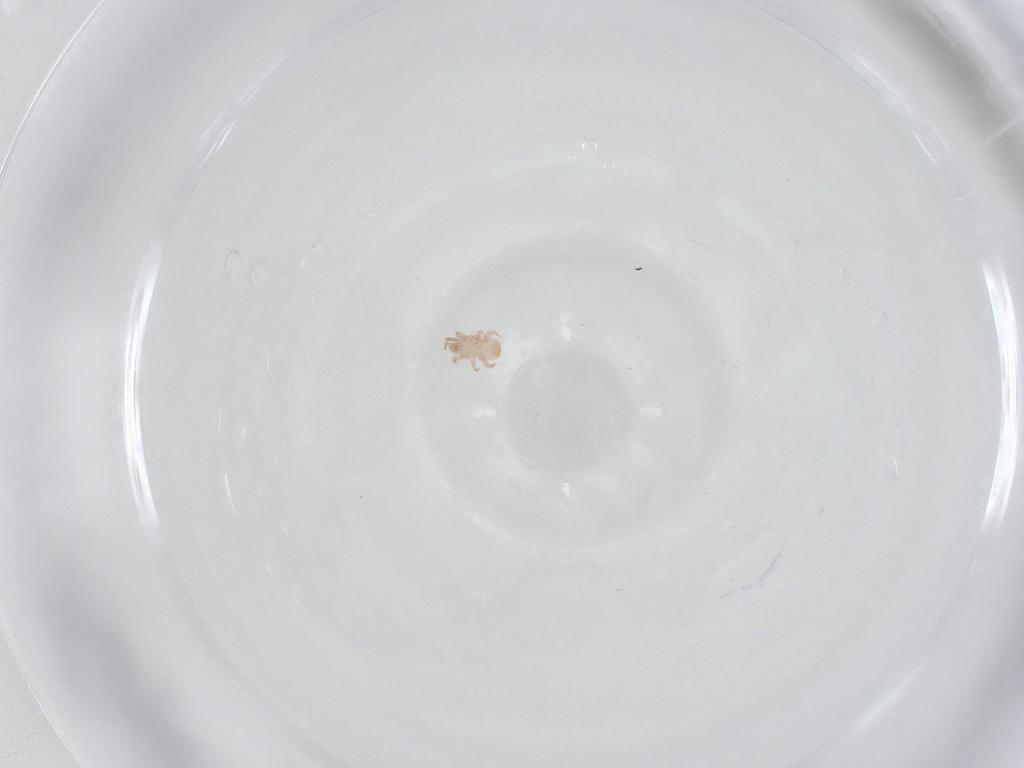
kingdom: Animalia
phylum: Arthropoda
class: Arachnida
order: Mesostigmata
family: Digamasellidae
